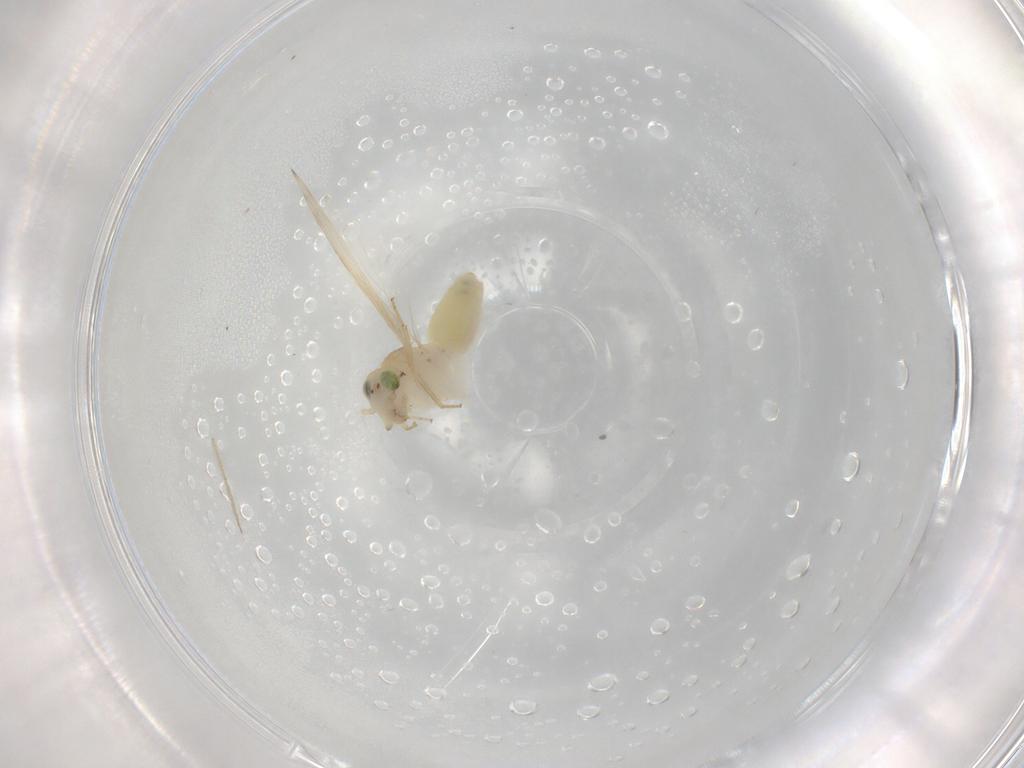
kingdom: Animalia
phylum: Arthropoda
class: Insecta
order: Psocodea
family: Lepidopsocidae
